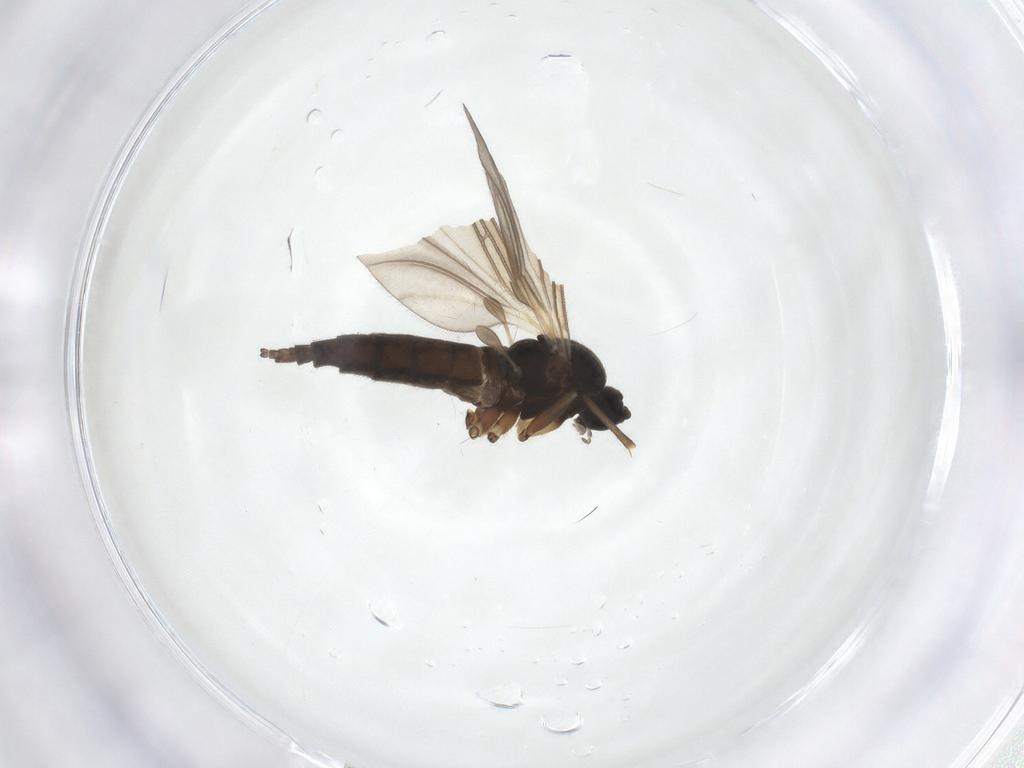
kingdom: Animalia
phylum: Arthropoda
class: Insecta
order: Diptera
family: Sciaridae
